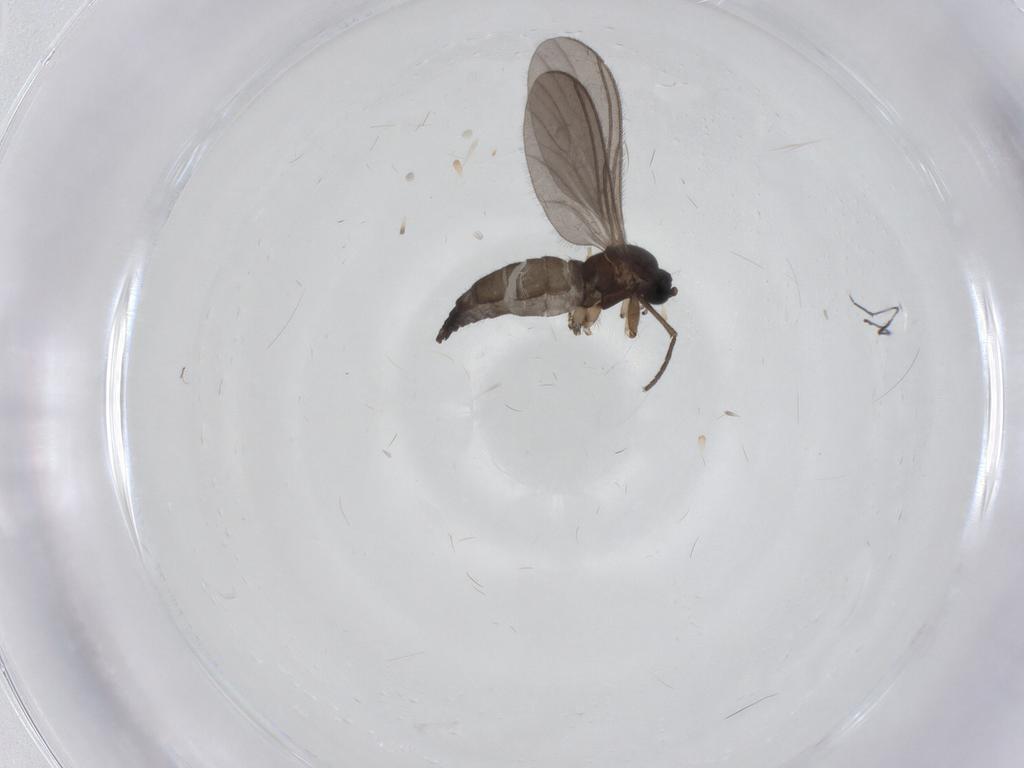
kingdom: Animalia
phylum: Arthropoda
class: Insecta
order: Diptera
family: Sciaridae
